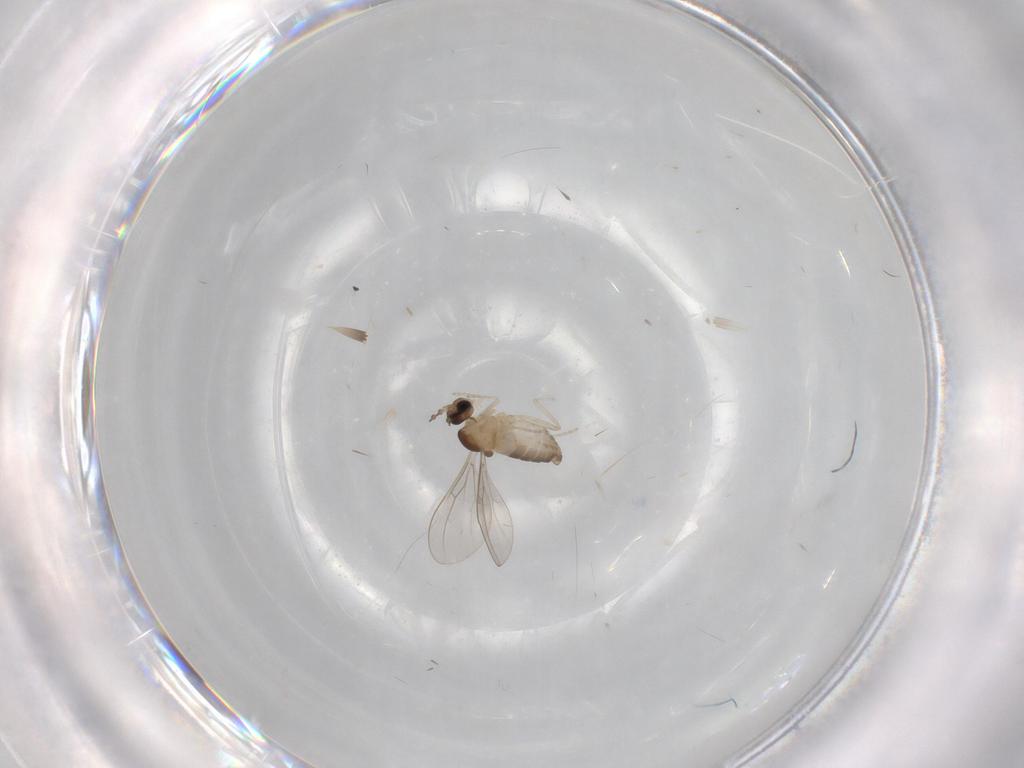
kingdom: Animalia
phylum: Arthropoda
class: Insecta
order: Diptera
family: Cecidomyiidae
